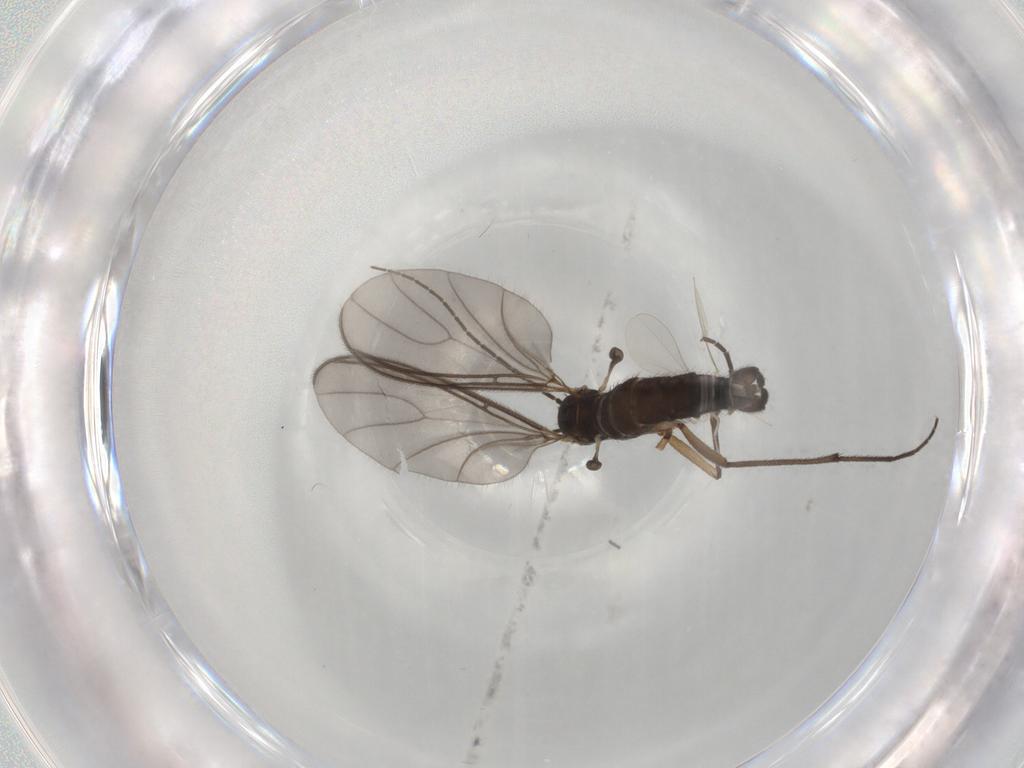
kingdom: Animalia
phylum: Arthropoda
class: Insecta
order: Diptera
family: Sciaridae
